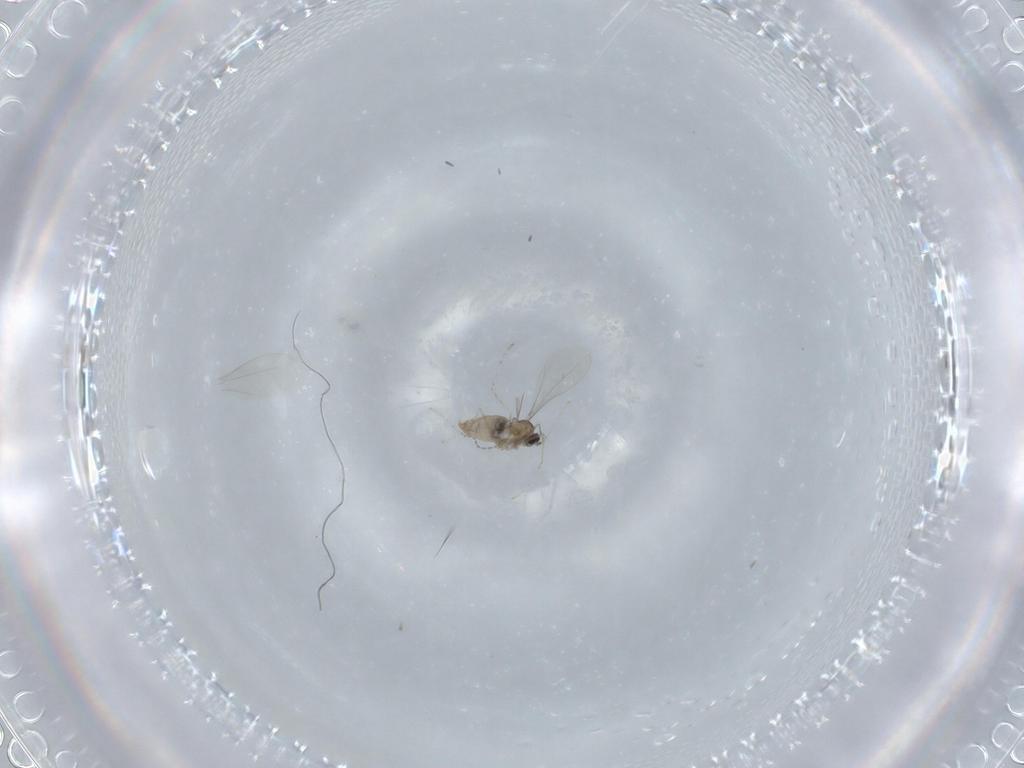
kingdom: Animalia
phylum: Arthropoda
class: Insecta
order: Diptera
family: Cecidomyiidae
